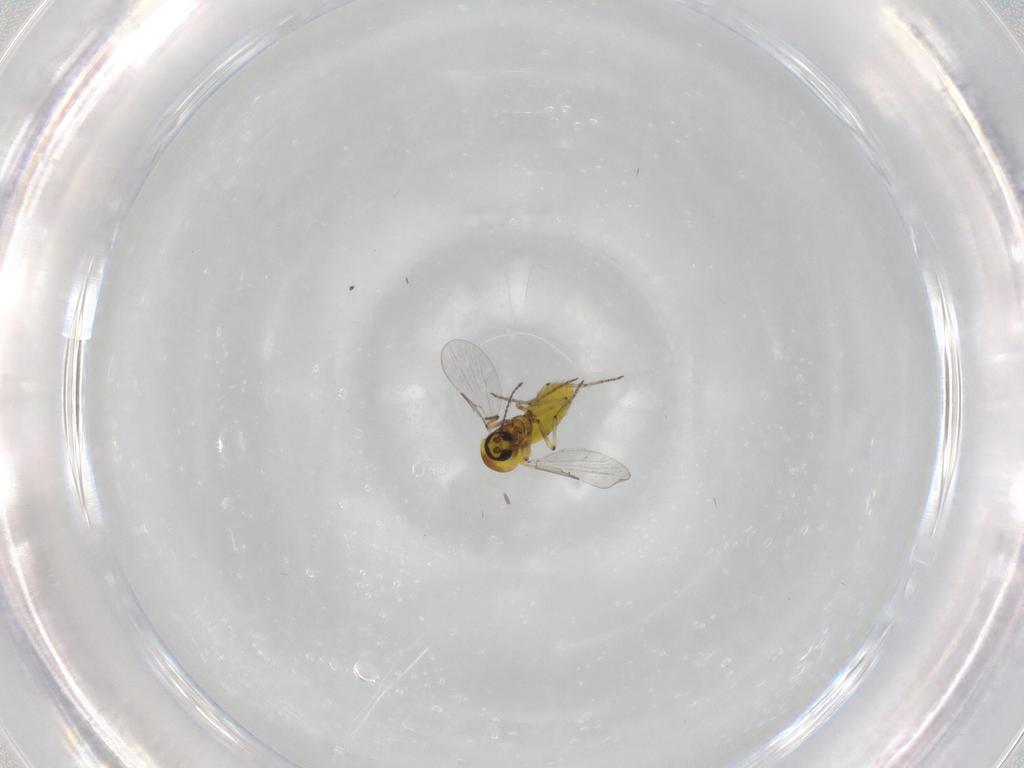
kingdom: Animalia
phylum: Arthropoda
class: Insecta
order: Diptera
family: Ceratopogonidae
